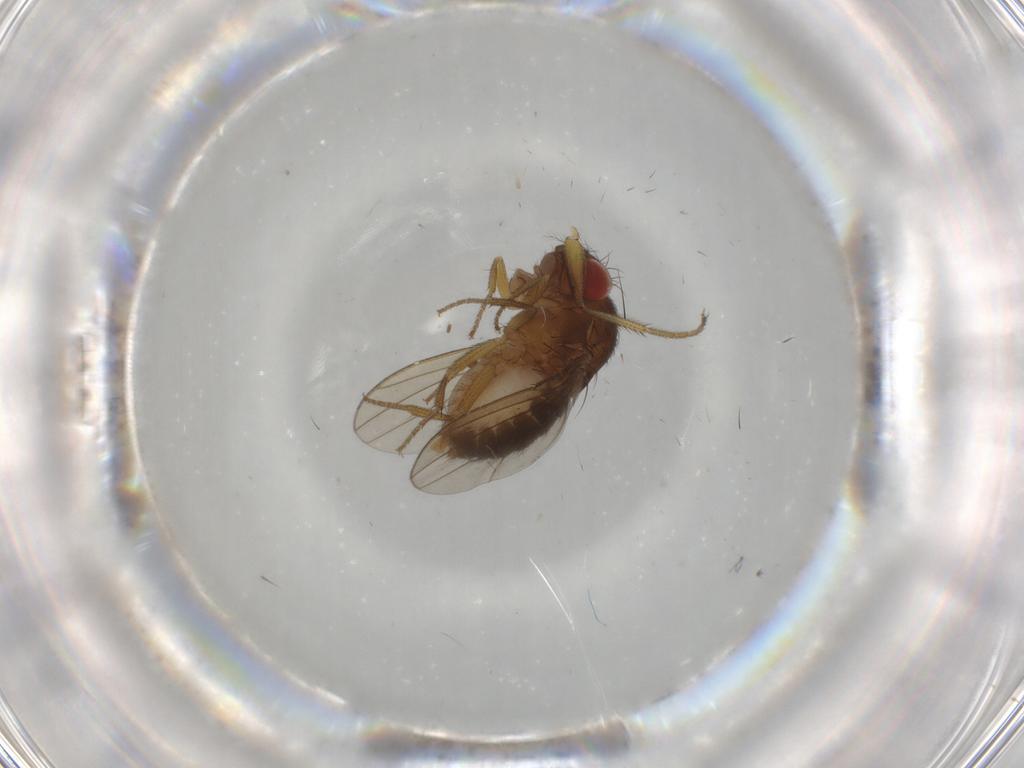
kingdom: Animalia
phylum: Arthropoda
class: Insecta
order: Diptera
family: Drosophilidae
